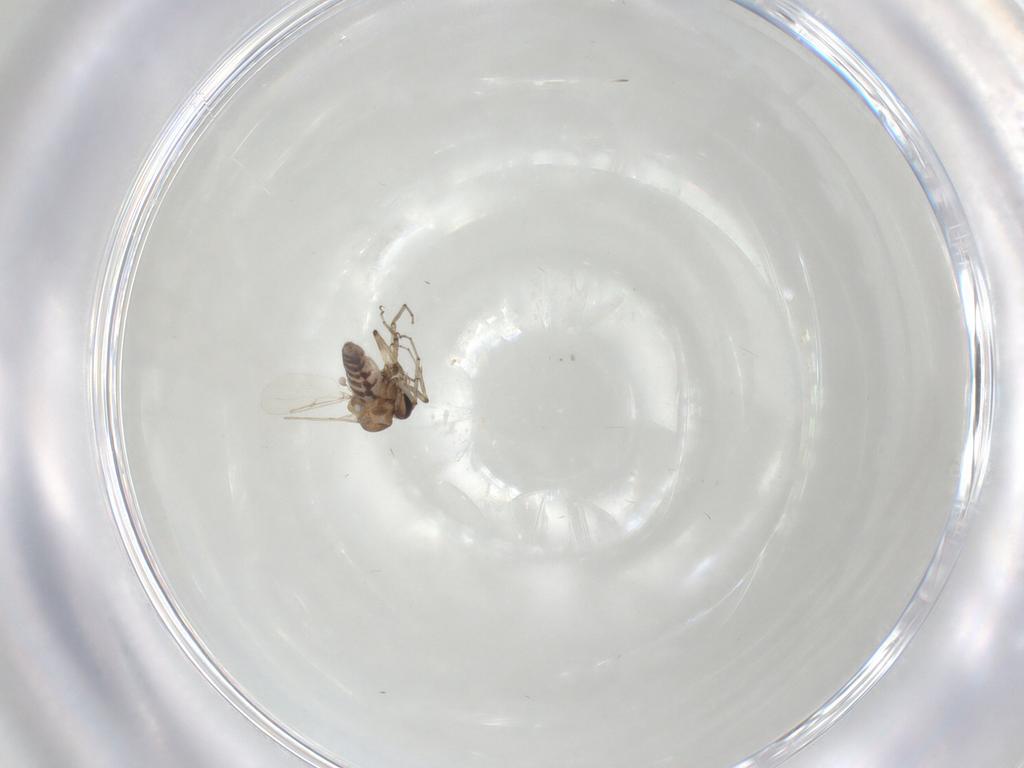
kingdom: Animalia
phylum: Arthropoda
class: Insecta
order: Diptera
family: Ceratopogonidae
